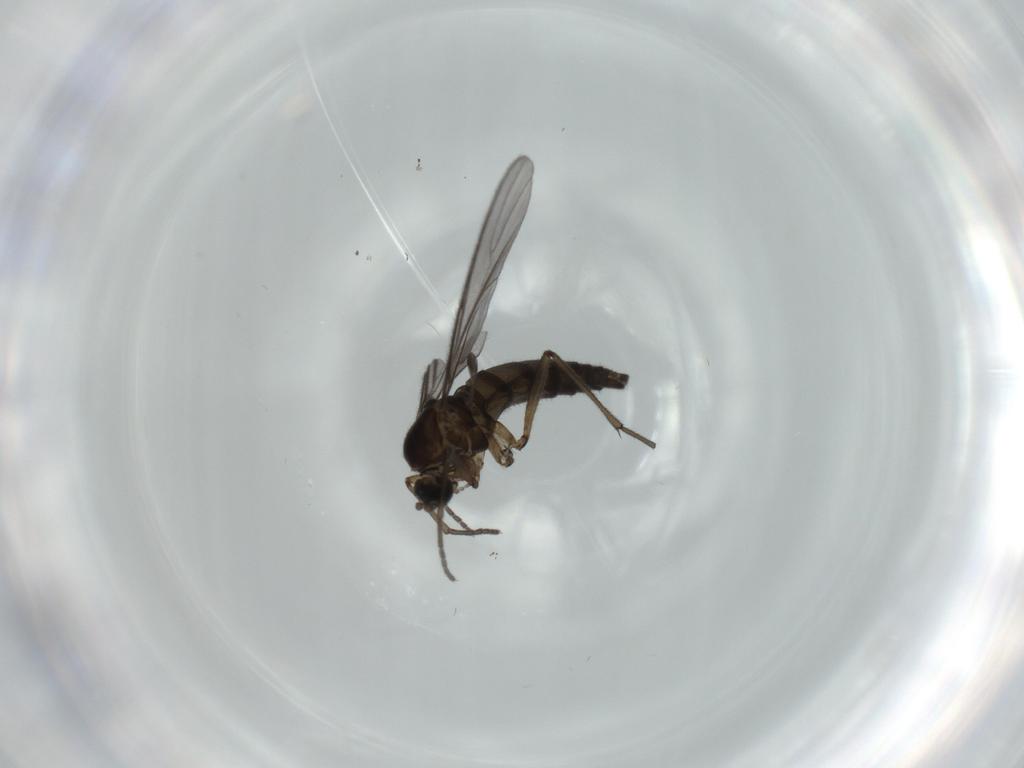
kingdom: Animalia
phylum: Arthropoda
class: Insecta
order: Diptera
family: Sciaridae
